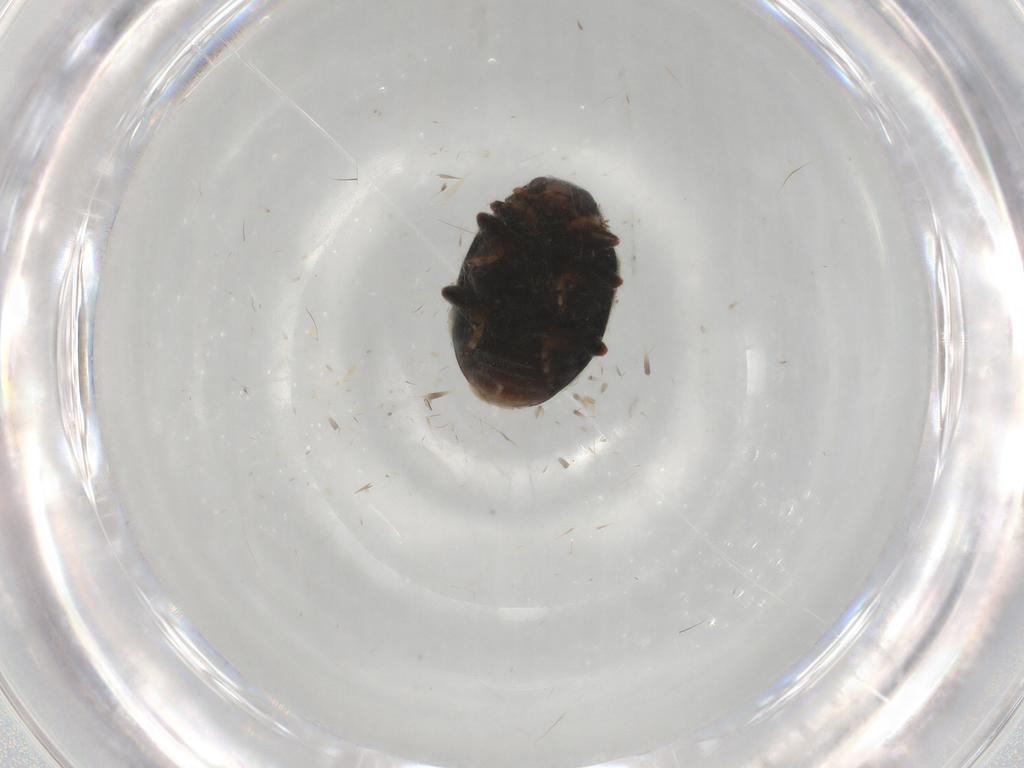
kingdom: Animalia
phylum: Arthropoda
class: Insecta
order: Coleoptera
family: Coccinellidae
